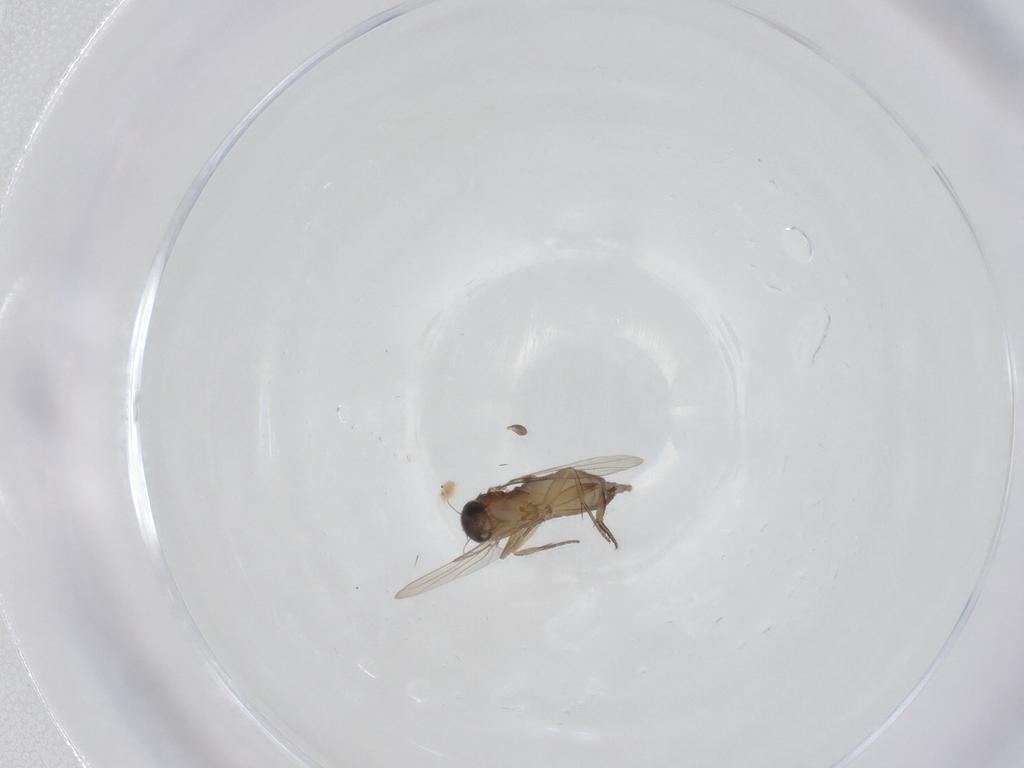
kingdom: Animalia
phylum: Arthropoda
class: Insecta
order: Diptera
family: Phoridae
